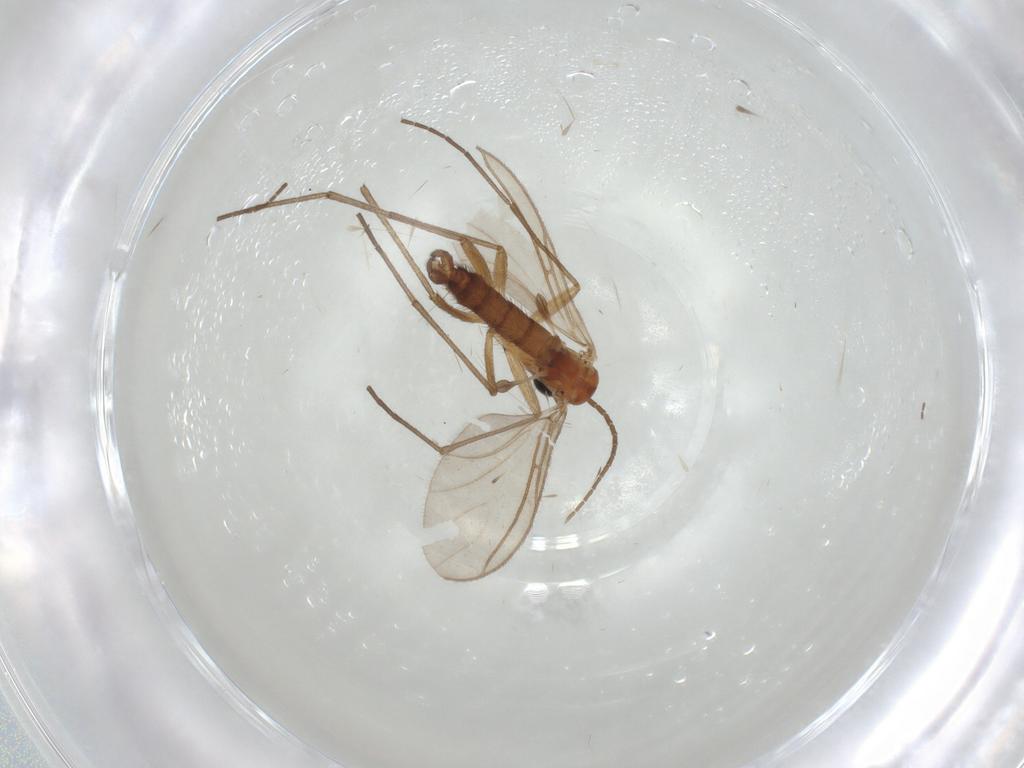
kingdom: Animalia
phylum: Arthropoda
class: Insecta
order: Diptera
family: Sciaridae
